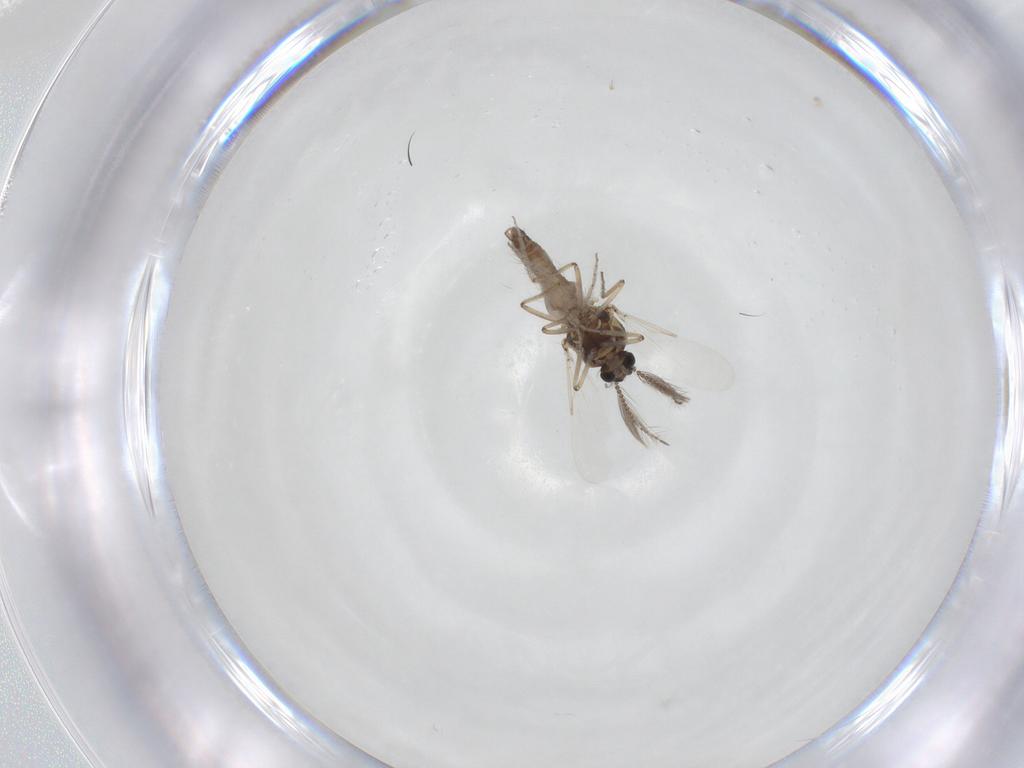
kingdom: Animalia
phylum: Arthropoda
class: Insecta
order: Diptera
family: Ceratopogonidae
